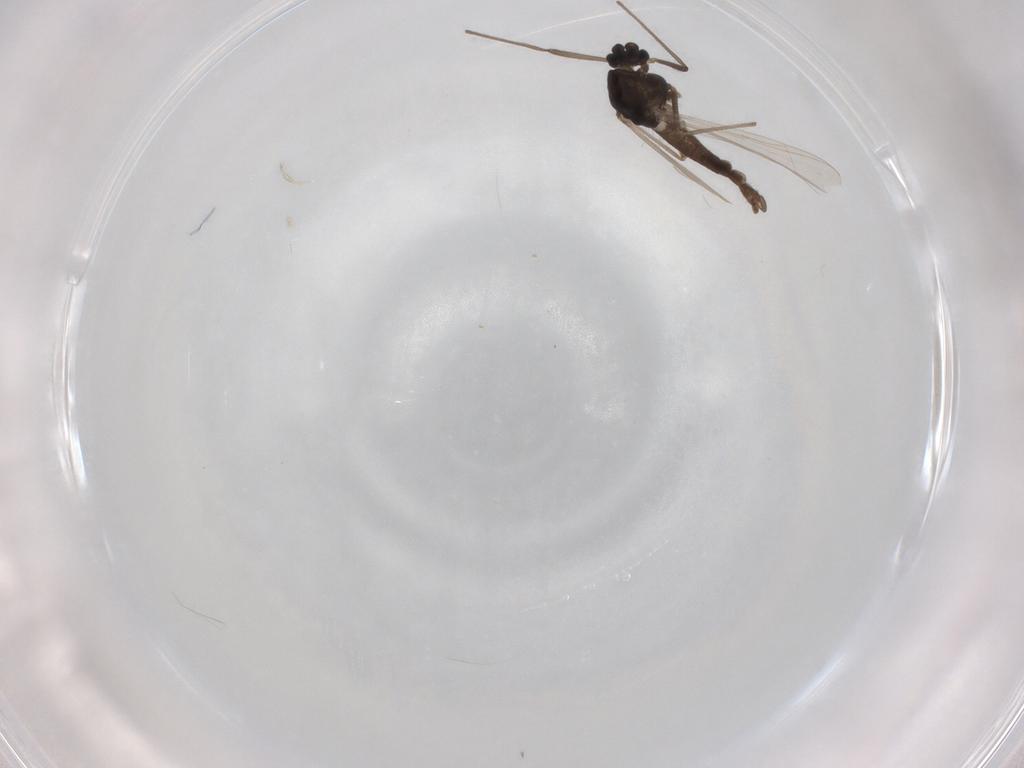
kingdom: Animalia
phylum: Arthropoda
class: Insecta
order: Diptera
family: Chironomidae
